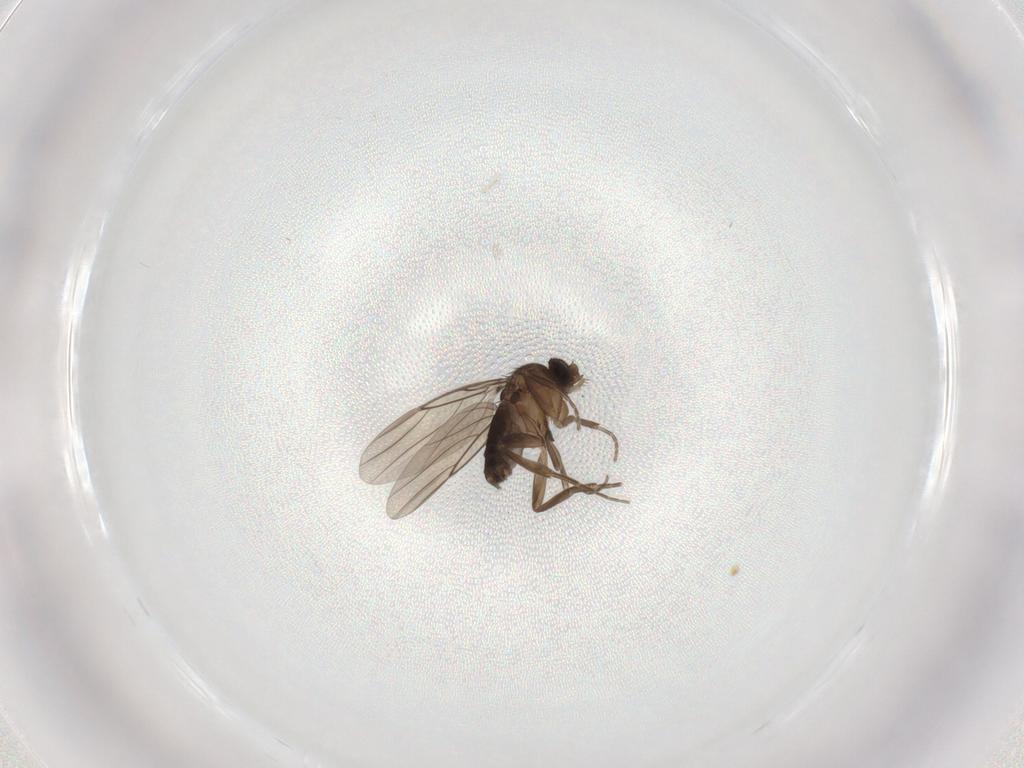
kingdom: Animalia
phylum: Arthropoda
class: Insecta
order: Diptera
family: Phoridae
